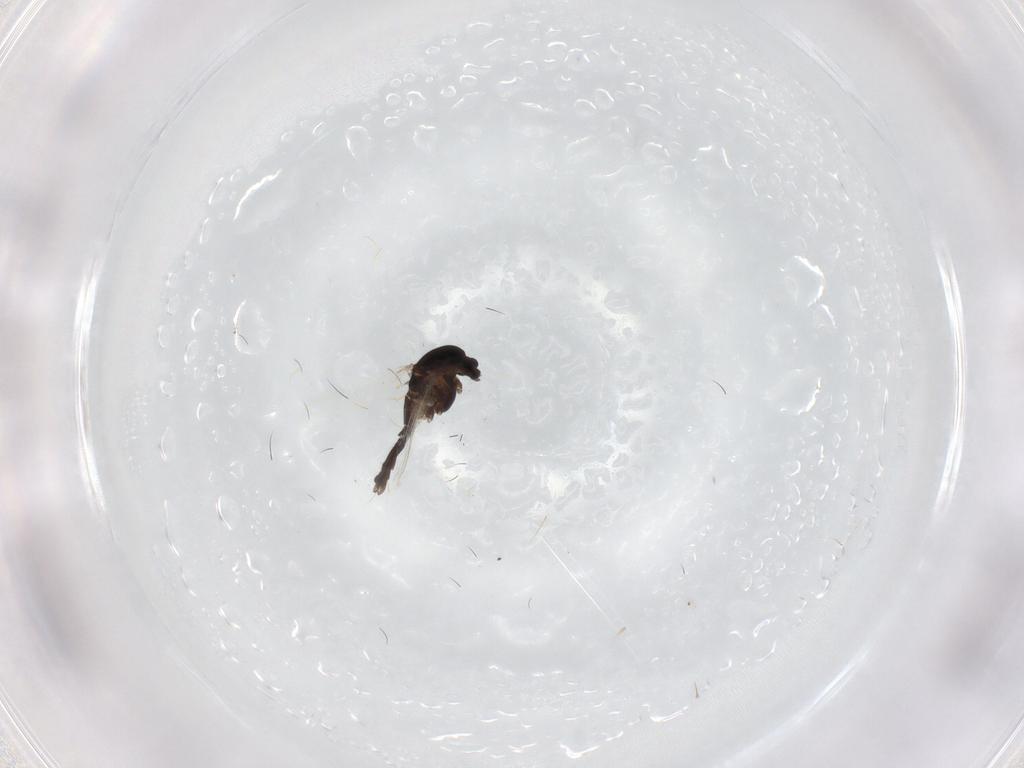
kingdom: Animalia
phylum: Arthropoda
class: Insecta
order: Diptera
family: Chironomidae
